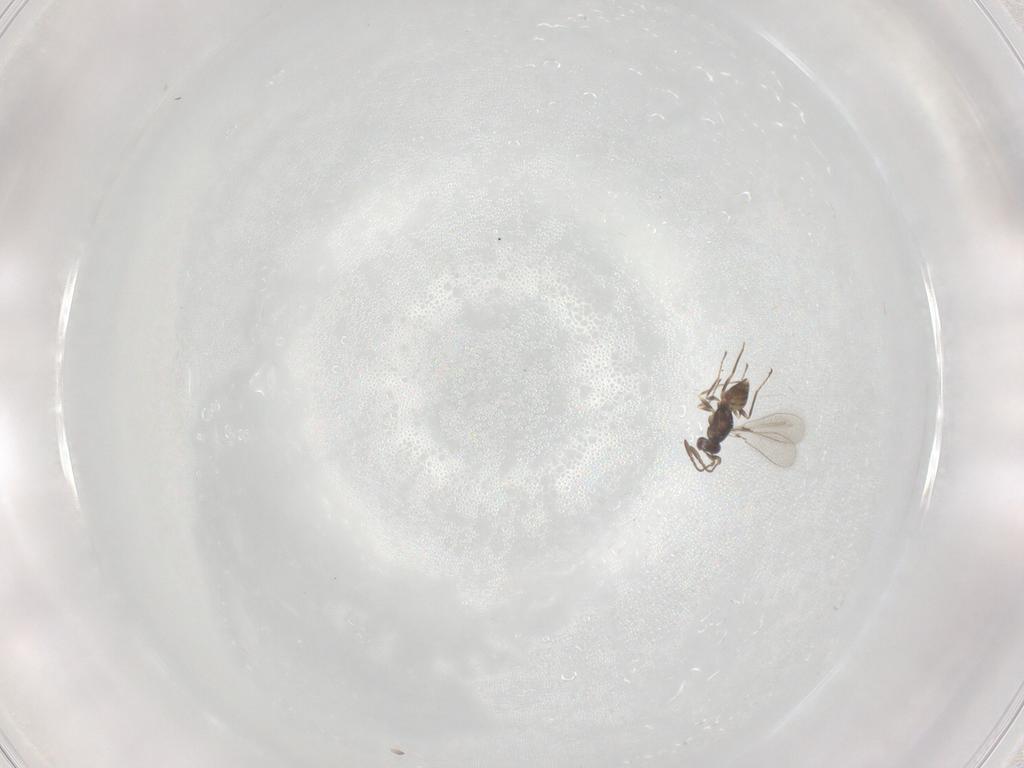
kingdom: Animalia
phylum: Arthropoda
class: Insecta
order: Hymenoptera
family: Mymaridae
